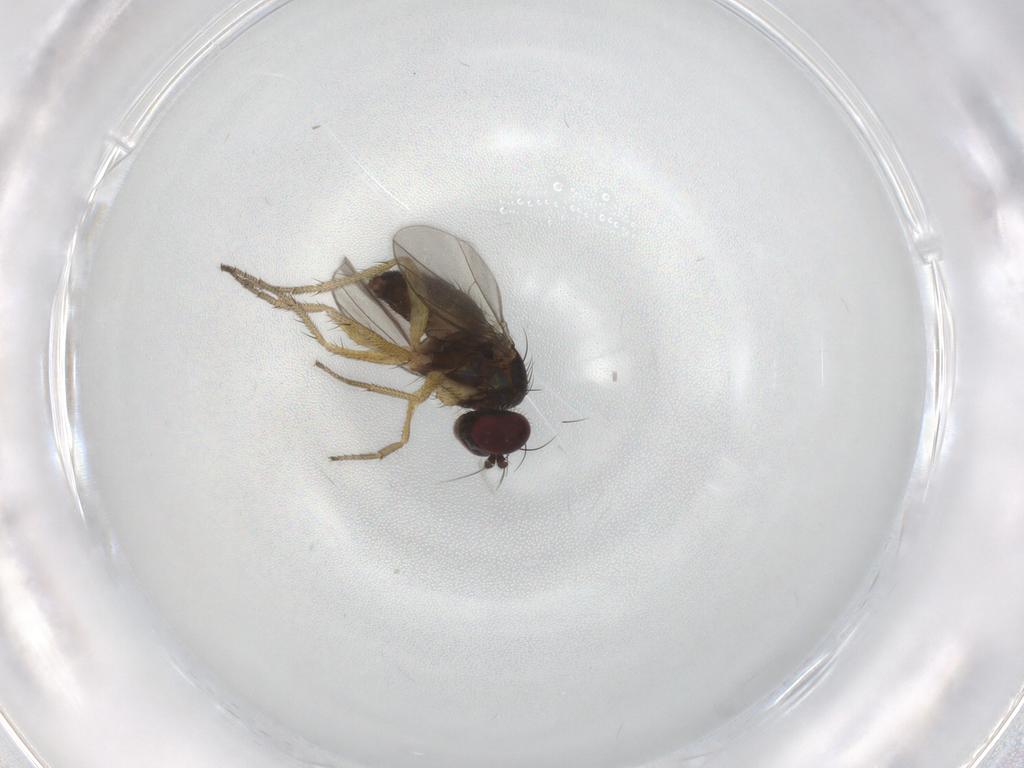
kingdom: Animalia
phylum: Arthropoda
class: Insecta
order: Diptera
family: Dolichopodidae
